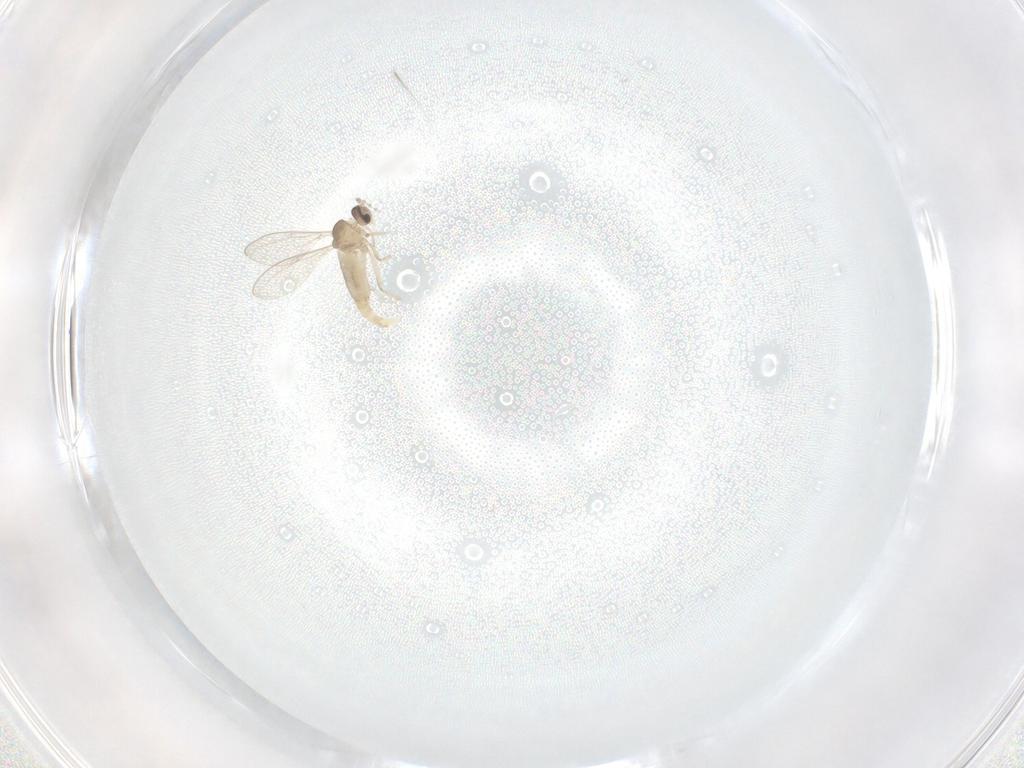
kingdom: Animalia
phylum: Arthropoda
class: Insecta
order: Diptera
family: Cecidomyiidae
